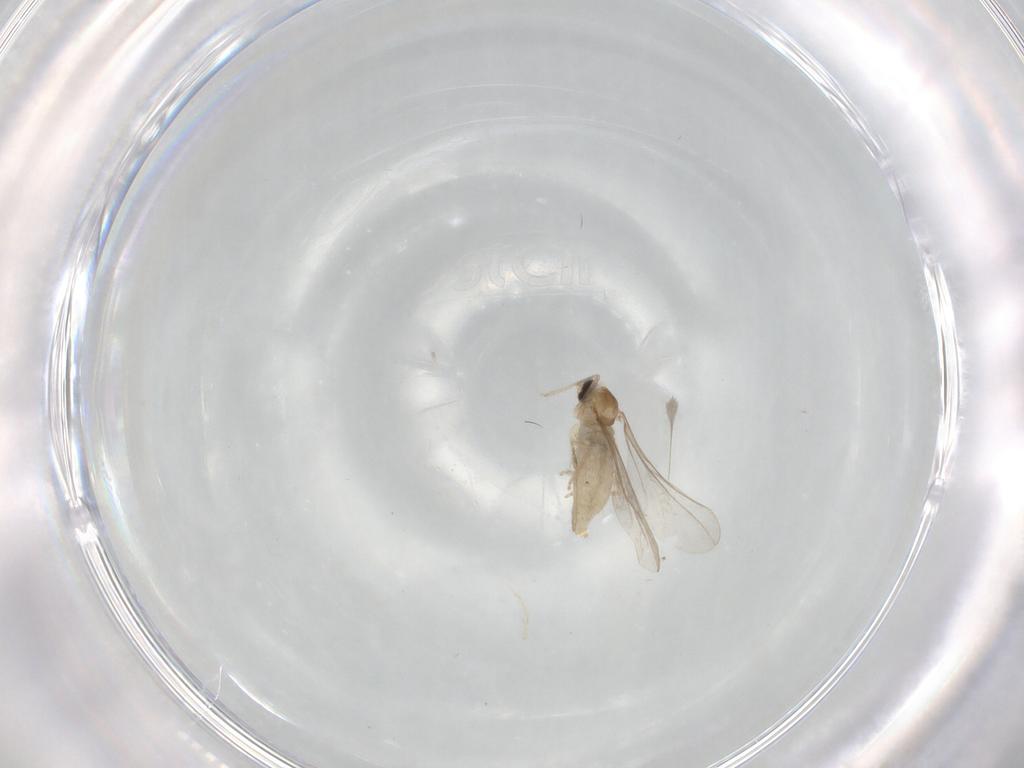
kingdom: Animalia
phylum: Arthropoda
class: Insecta
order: Diptera
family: Cecidomyiidae
